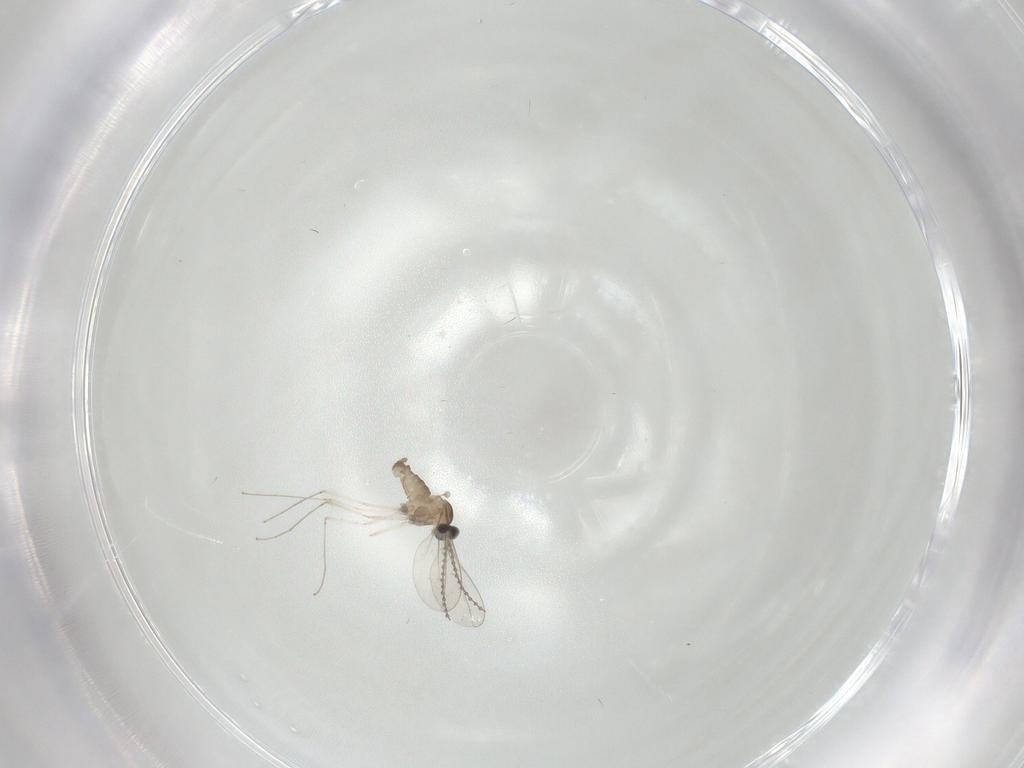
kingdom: Animalia
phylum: Arthropoda
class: Insecta
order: Diptera
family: Cecidomyiidae
